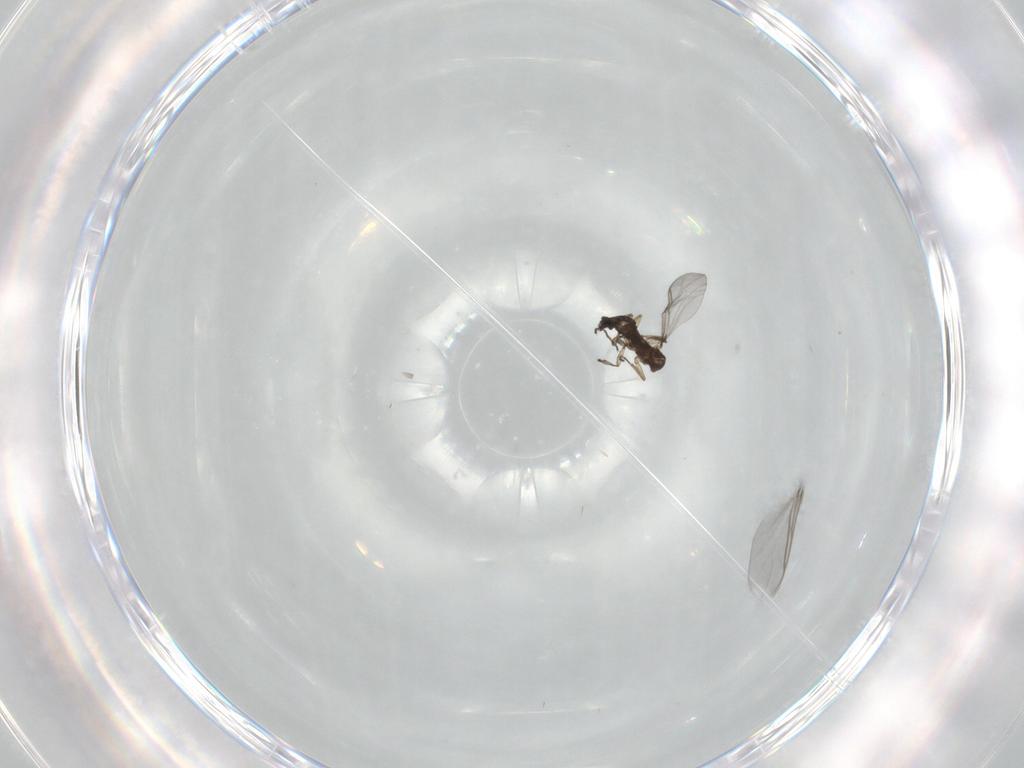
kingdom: Animalia
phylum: Arthropoda
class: Insecta
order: Diptera
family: Sciaridae
